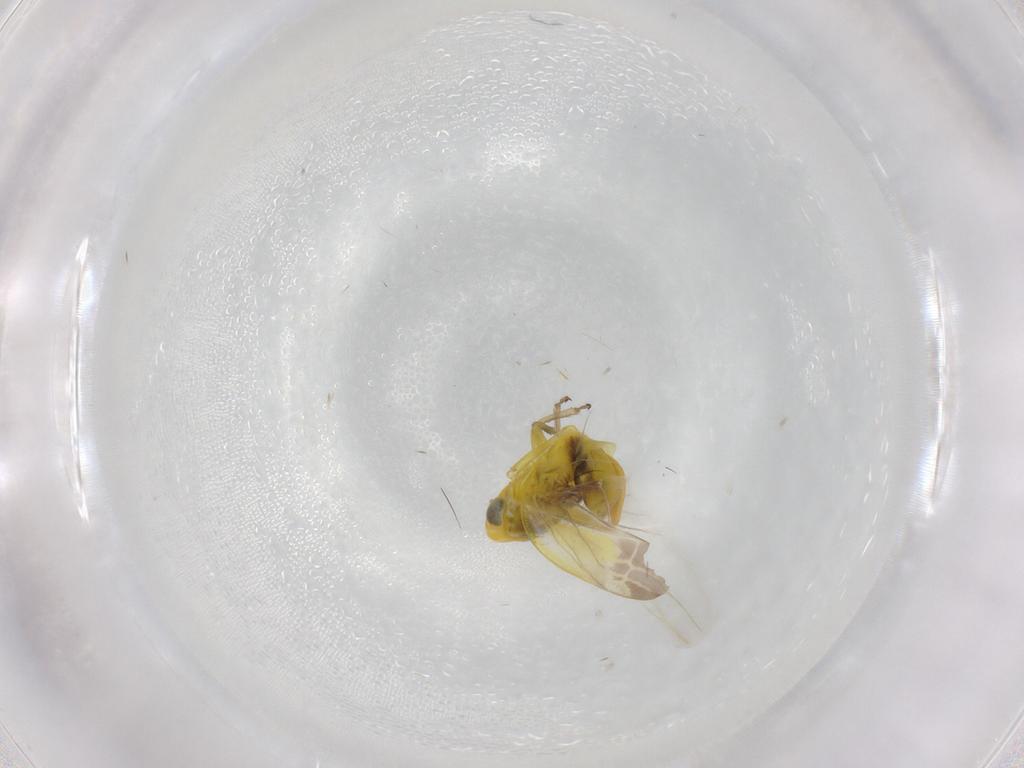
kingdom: Animalia
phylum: Arthropoda
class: Insecta
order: Hemiptera
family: Cicadellidae
